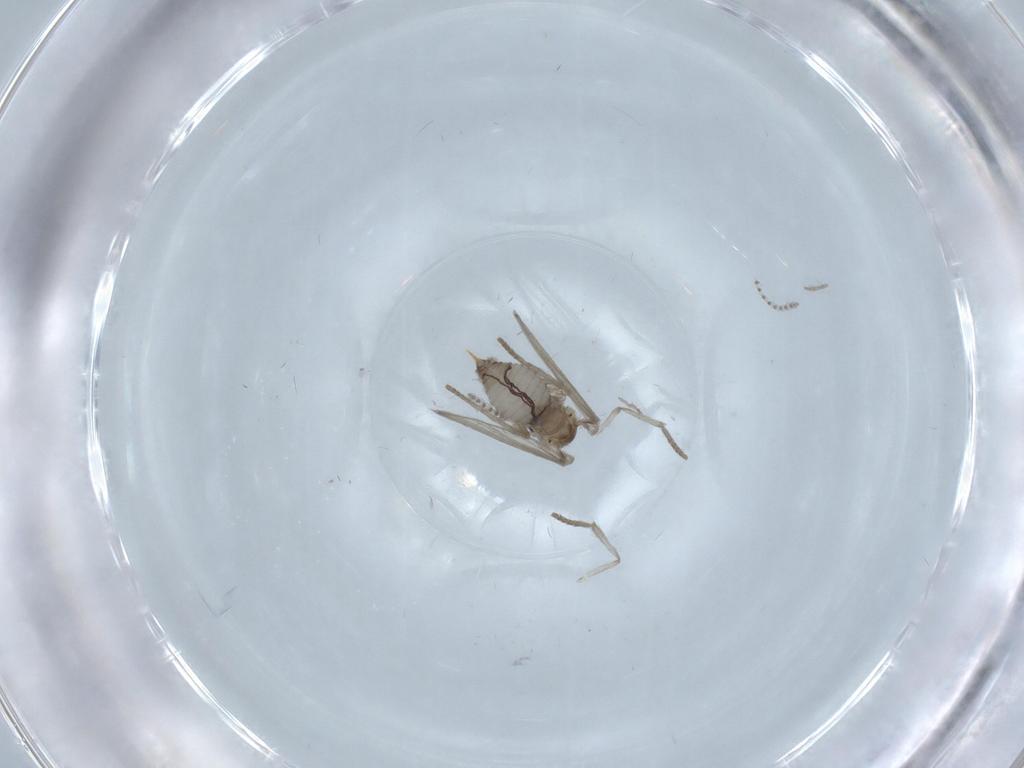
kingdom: Animalia
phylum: Arthropoda
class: Insecta
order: Diptera
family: Psychodidae
